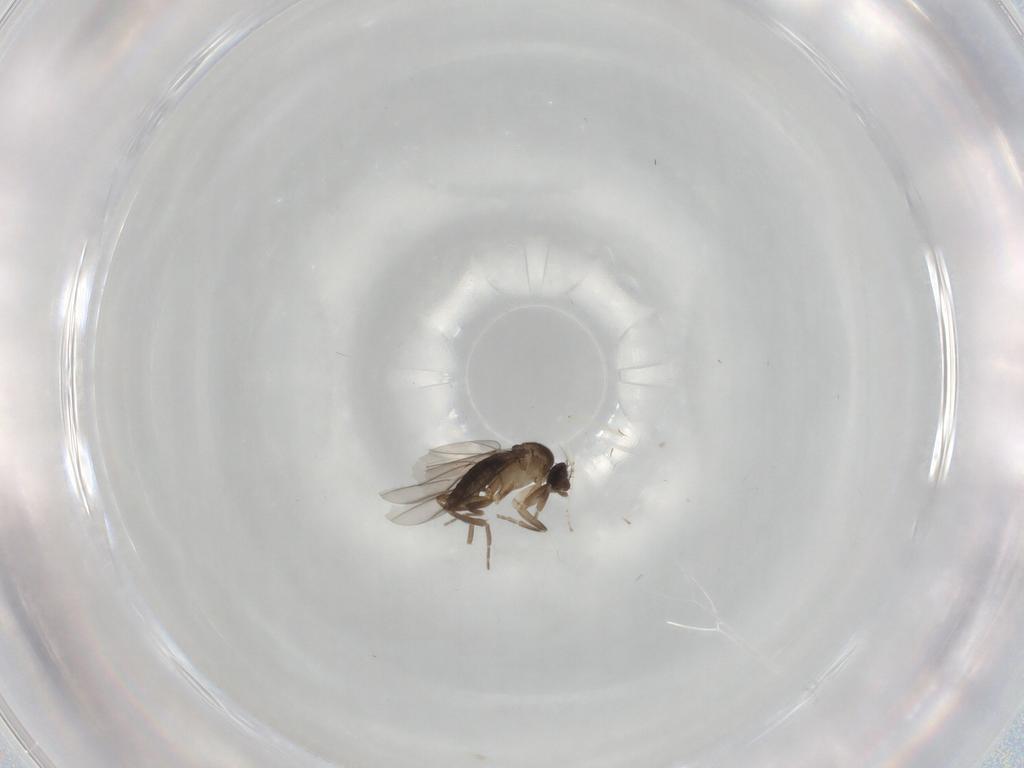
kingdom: Animalia
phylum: Arthropoda
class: Insecta
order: Diptera
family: Phoridae
